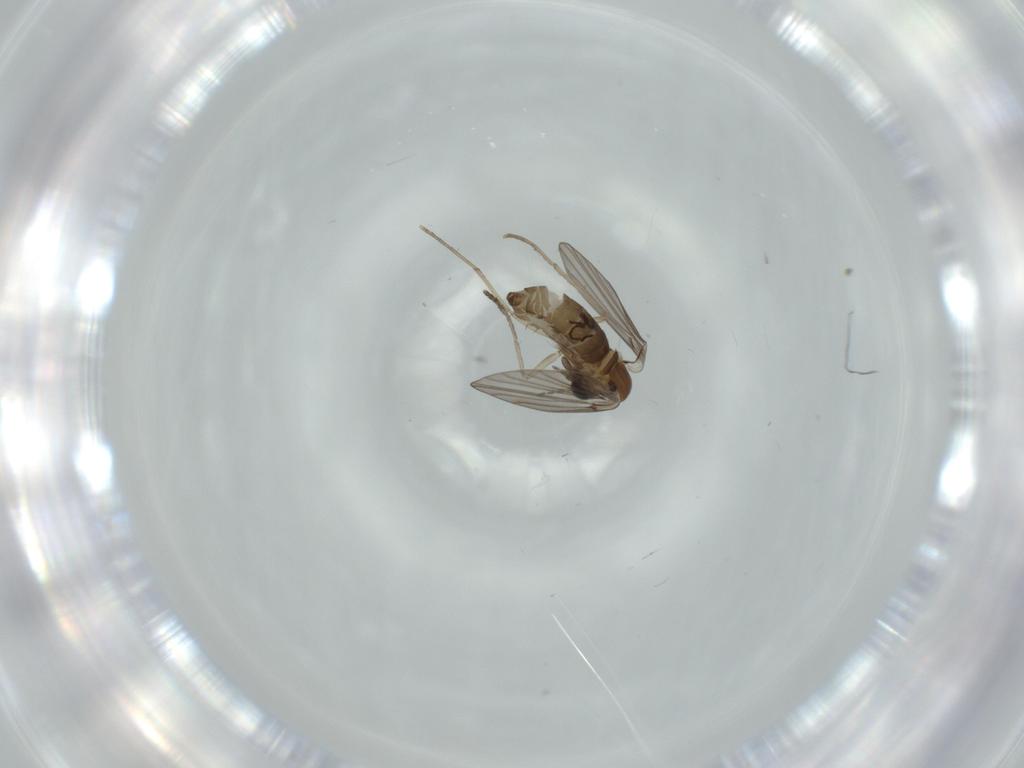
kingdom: Animalia
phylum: Arthropoda
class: Insecta
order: Diptera
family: Psychodidae
